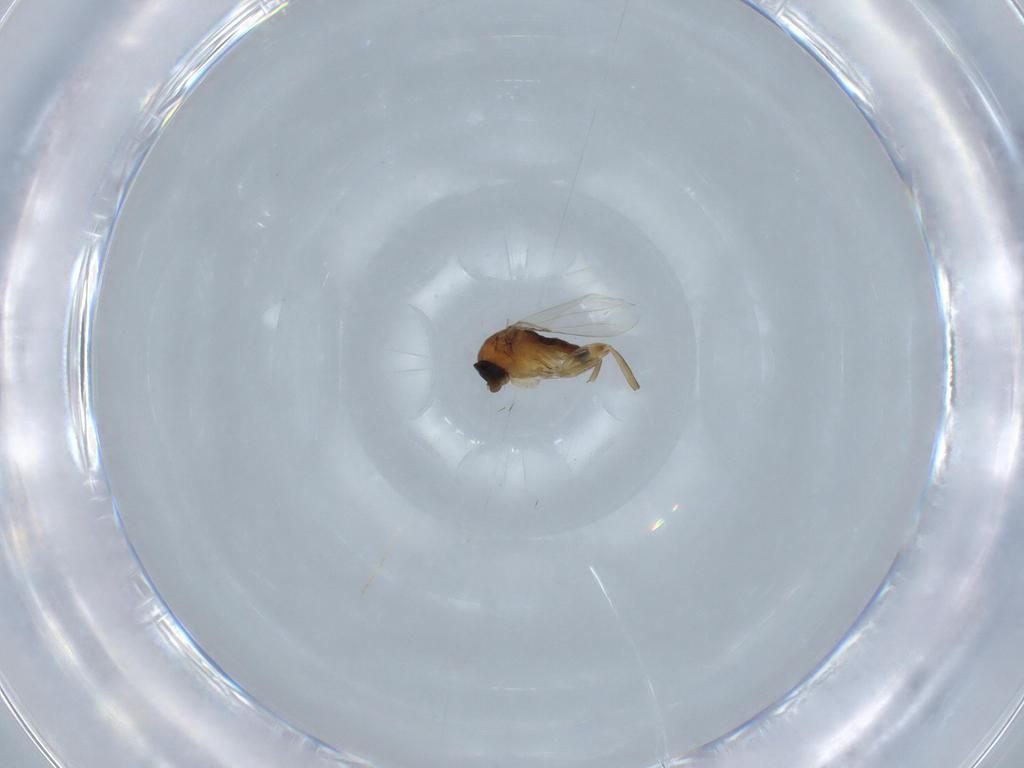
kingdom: Animalia
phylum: Arthropoda
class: Insecta
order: Diptera
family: Sciaridae
